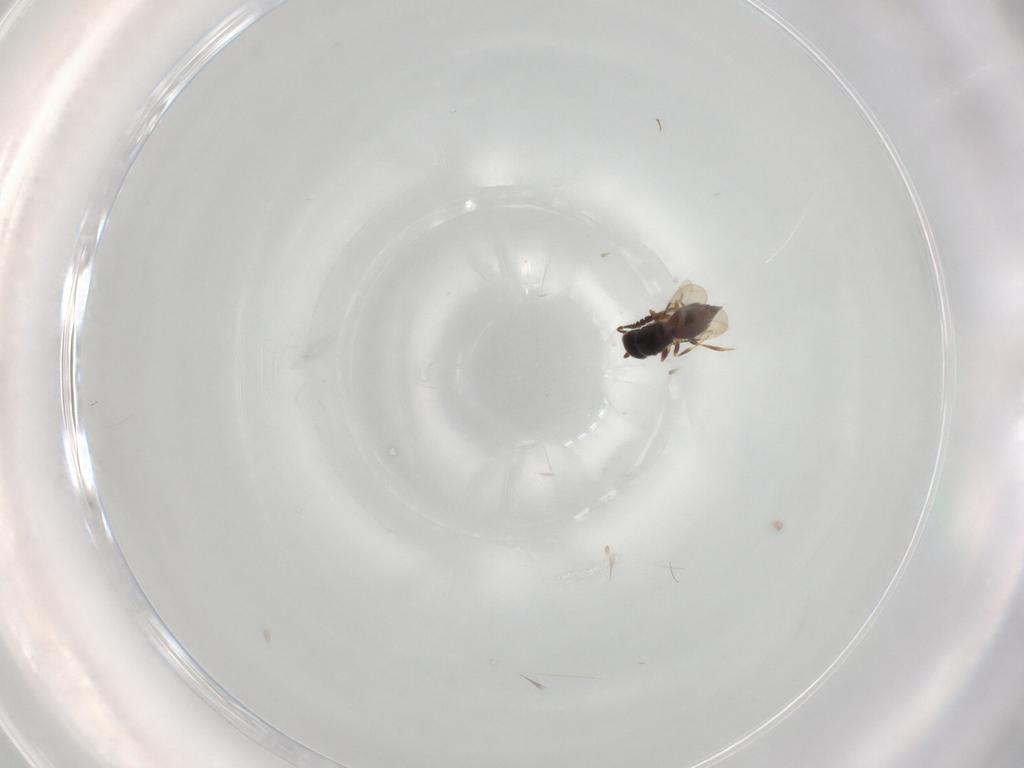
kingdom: Animalia
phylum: Arthropoda
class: Insecta
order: Hymenoptera
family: Ceraphronidae
